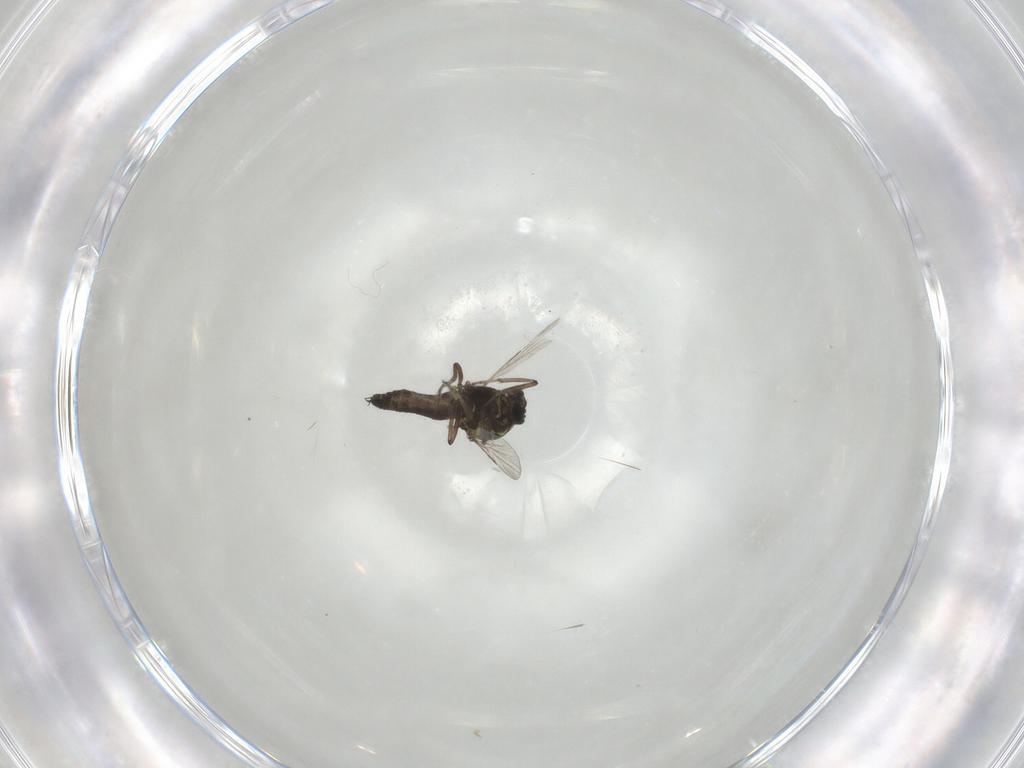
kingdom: Animalia
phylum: Arthropoda
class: Insecta
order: Diptera
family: Ceratopogonidae
